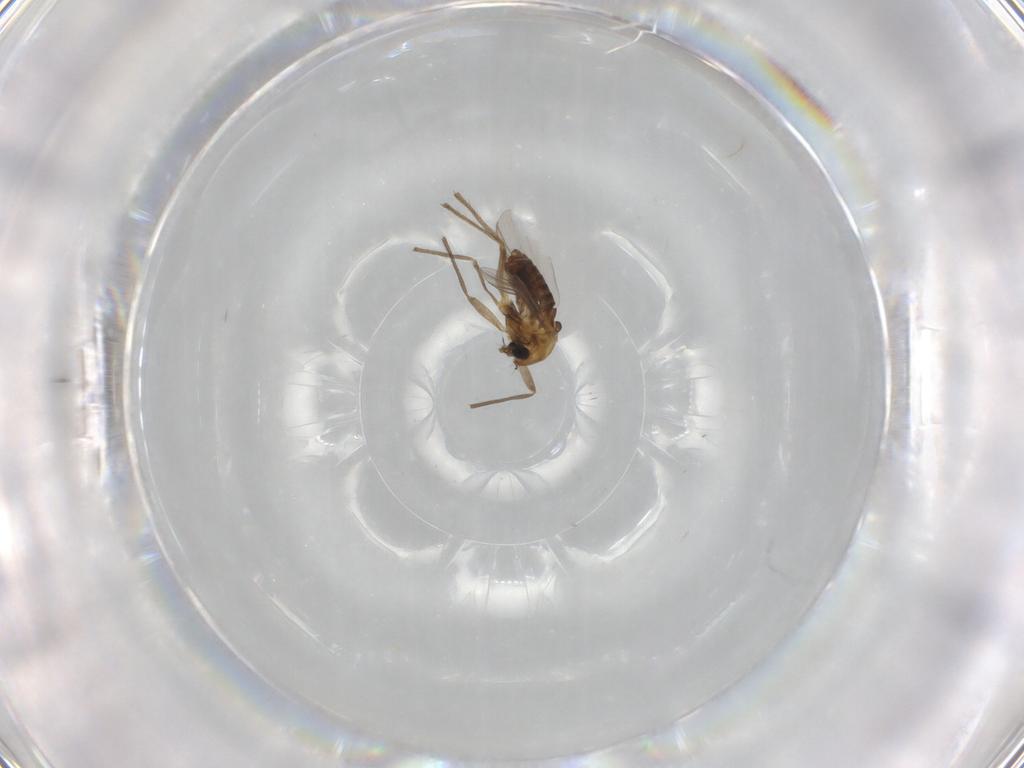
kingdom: Animalia
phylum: Arthropoda
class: Insecta
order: Diptera
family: Chironomidae
